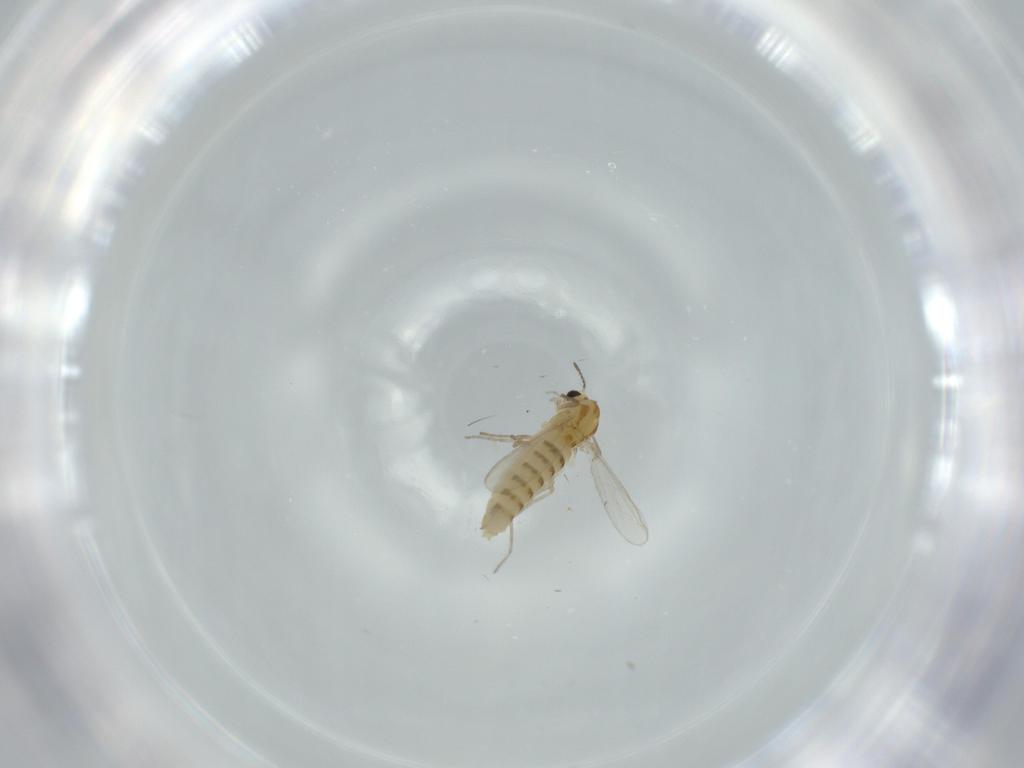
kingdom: Animalia
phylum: Arthropoda
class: Insecta
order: Diptera
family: Chironomidae
